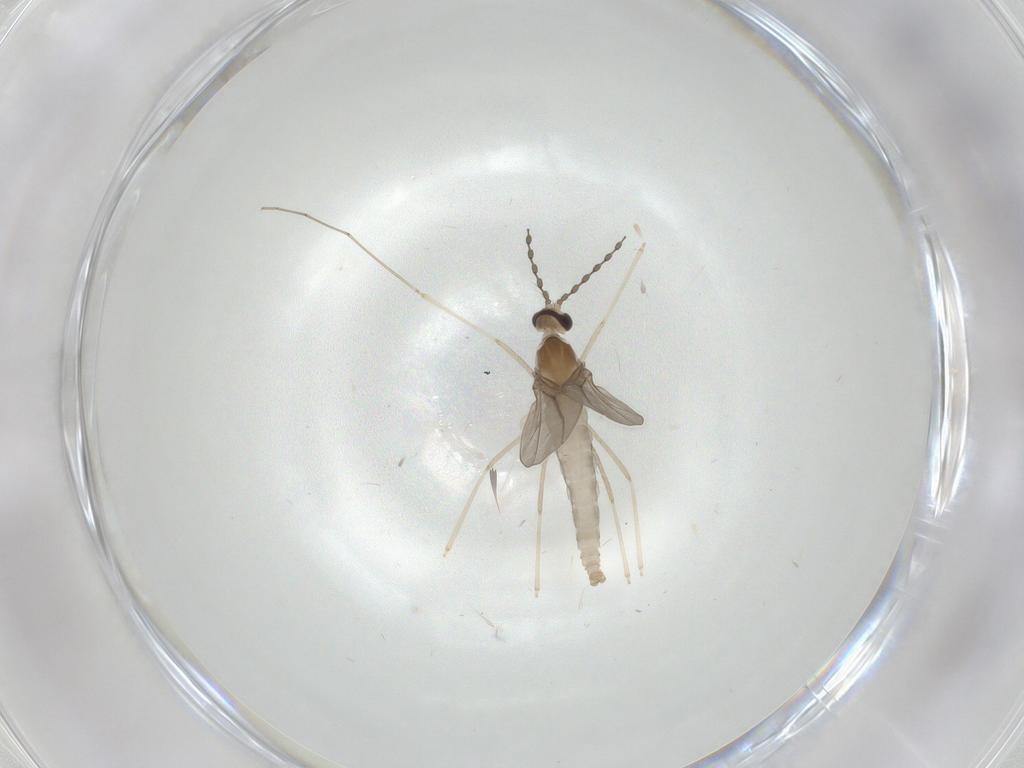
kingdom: Animalia
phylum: Arthropoda
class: Insecta
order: Diptera
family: Cecidomyiidae
